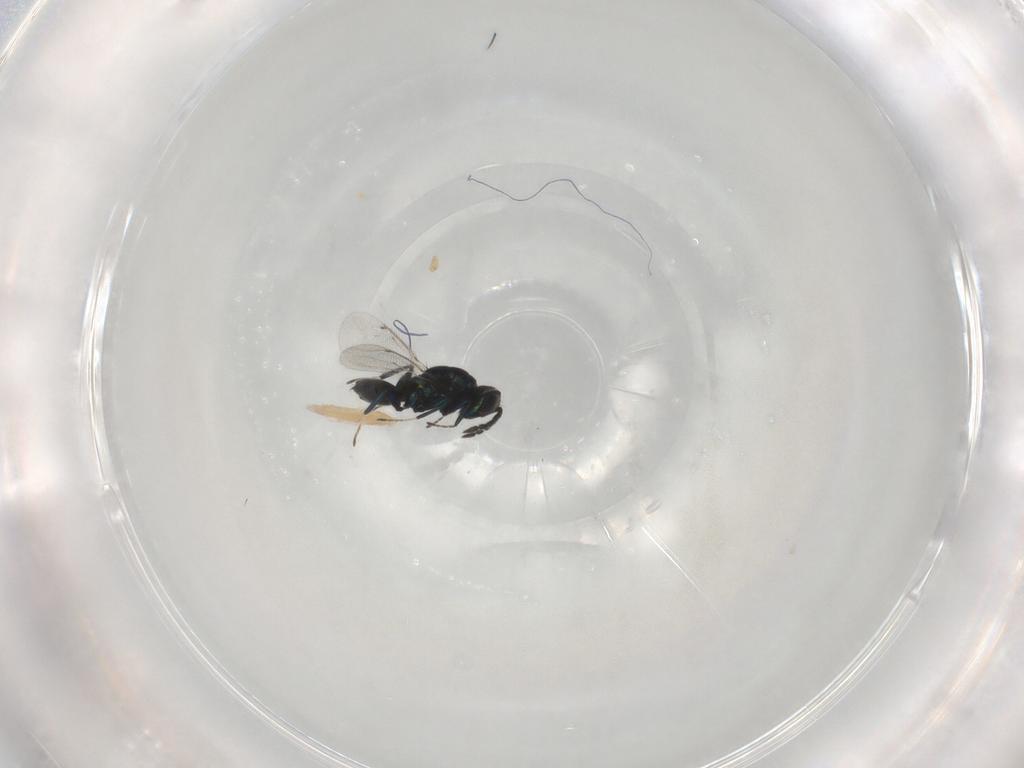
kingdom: Animalia
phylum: Arthropoda
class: Insecta
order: Hymenoptera
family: Eulophidae
